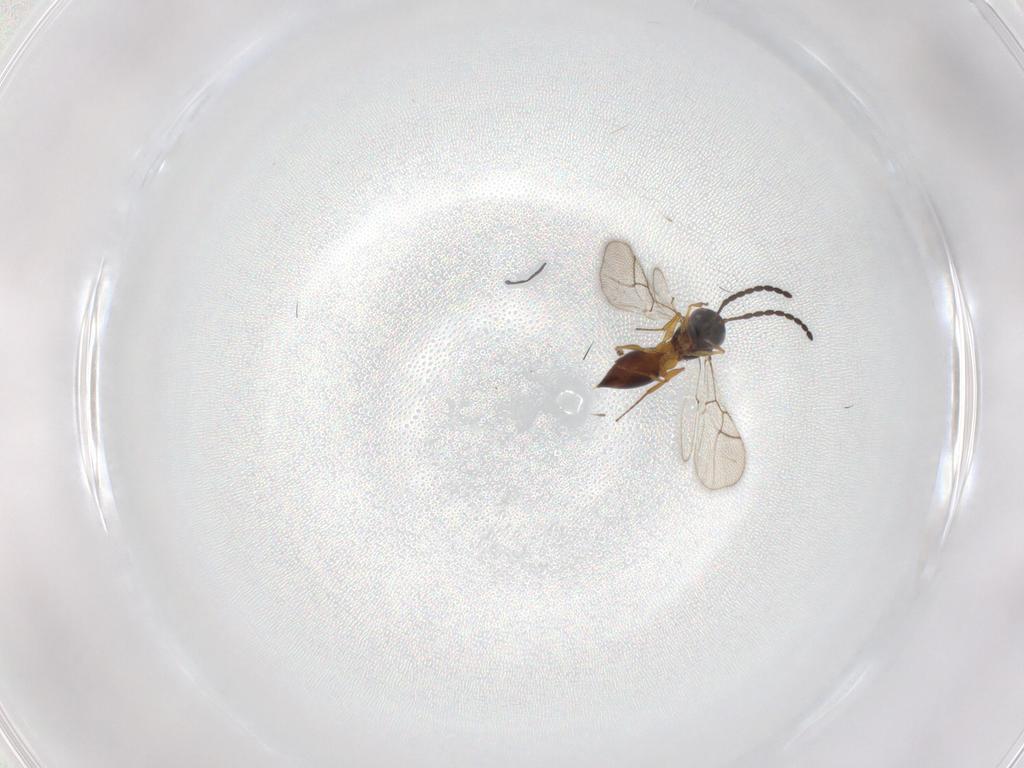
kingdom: Animalia
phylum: Arthropoda
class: Insecta
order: Hymenoptera
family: Figitidae
